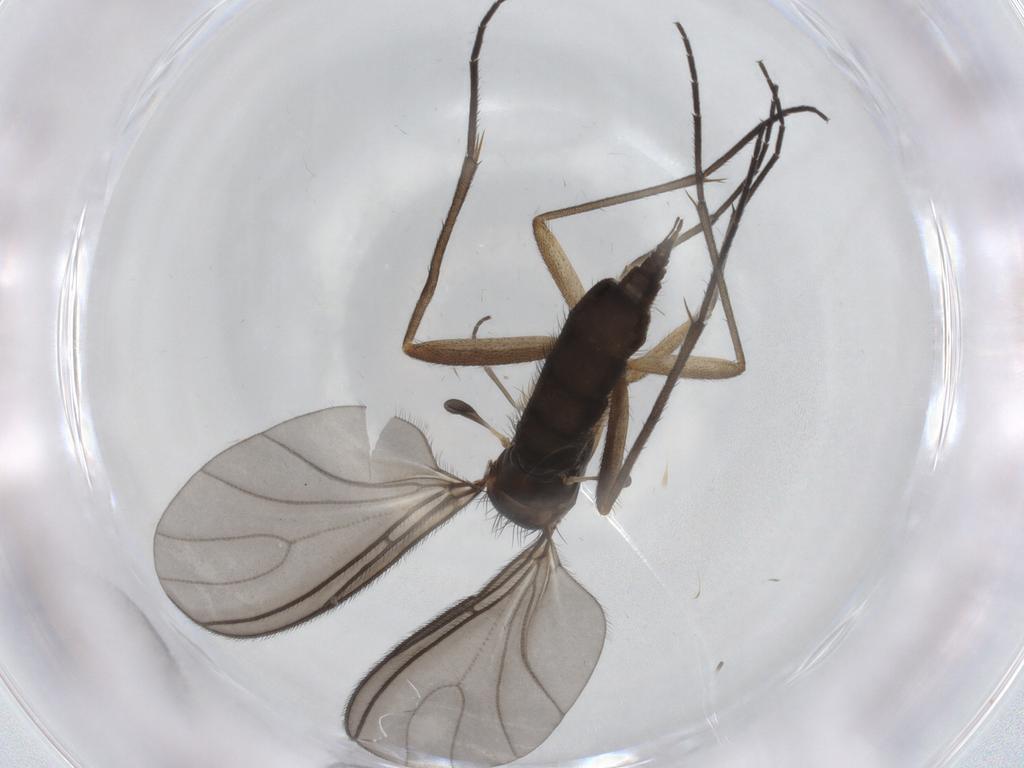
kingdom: Animalia
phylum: Arthropoda
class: Insecta
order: Diptera
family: Sciaridae
